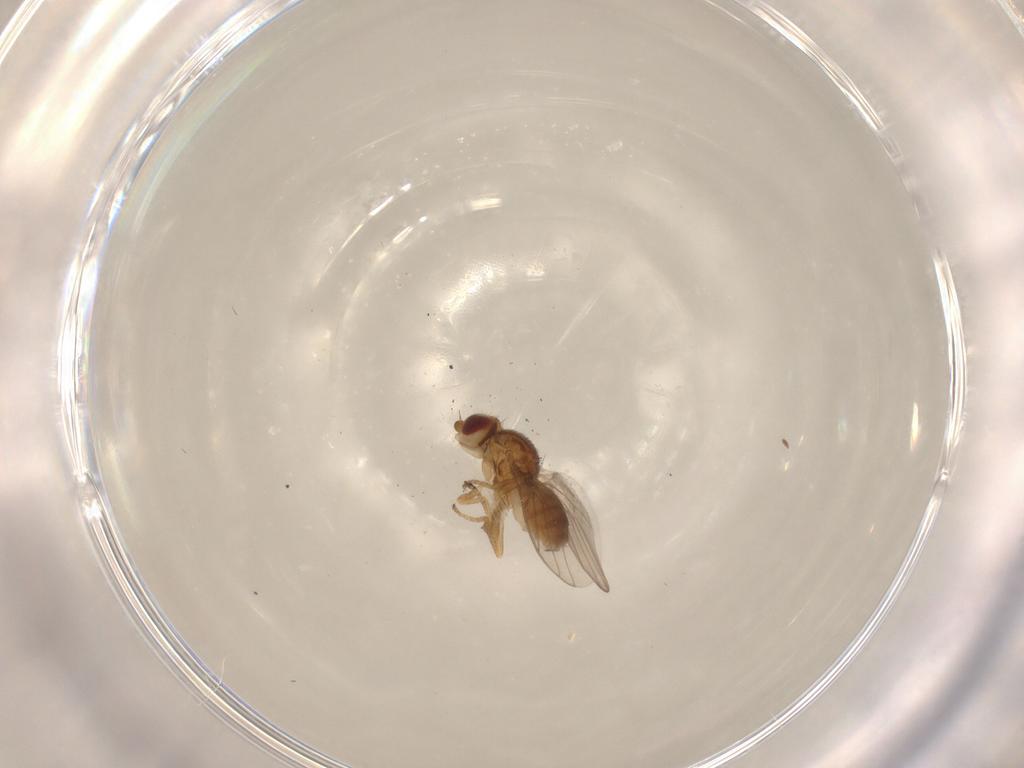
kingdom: Animalia
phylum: Arthropoda
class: Insecta
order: Diptera
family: Chloropidae
